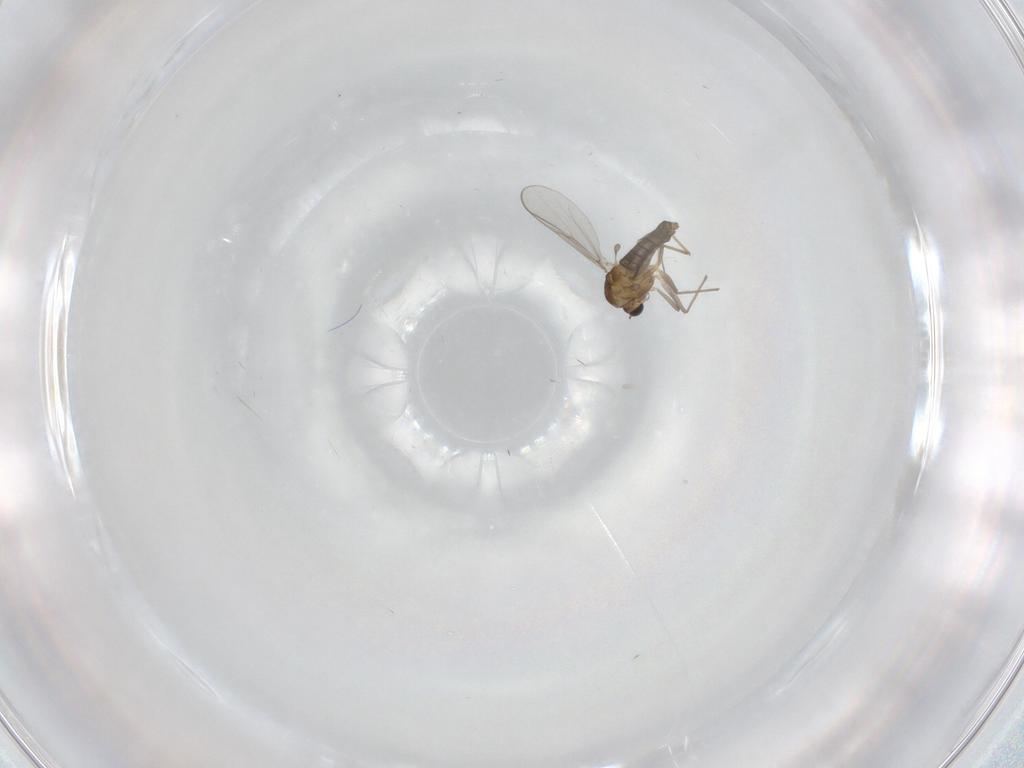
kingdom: Animalia
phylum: Arthropoda
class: Insecta
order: Diptera
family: Chironomidae
